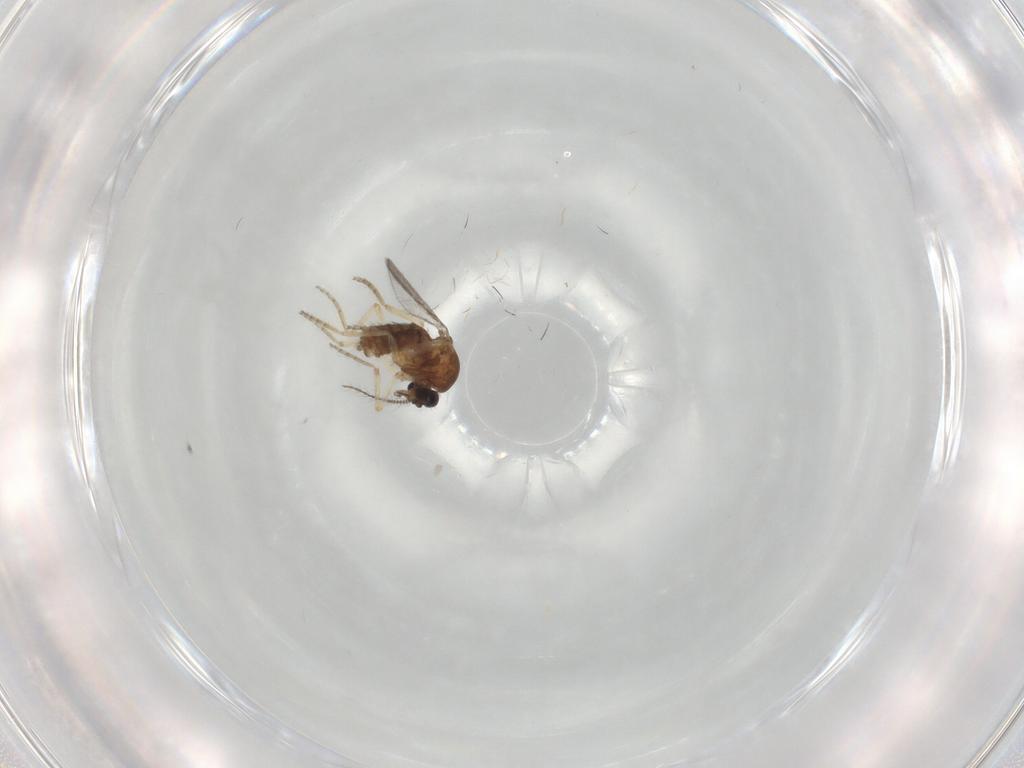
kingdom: Animalia
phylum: Arthropoda
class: Insecta
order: Diptera
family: Ceratopogonidae
